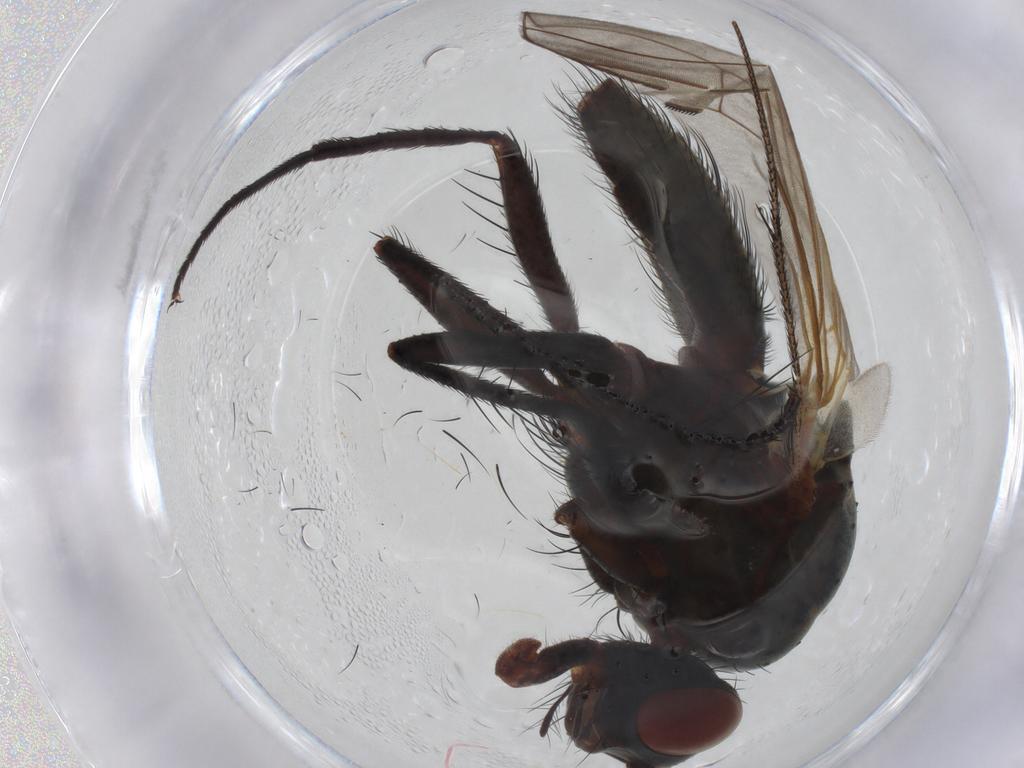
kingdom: Animalia
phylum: Arthropoda
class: Insecta
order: Diptera
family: Anthomyiidae
